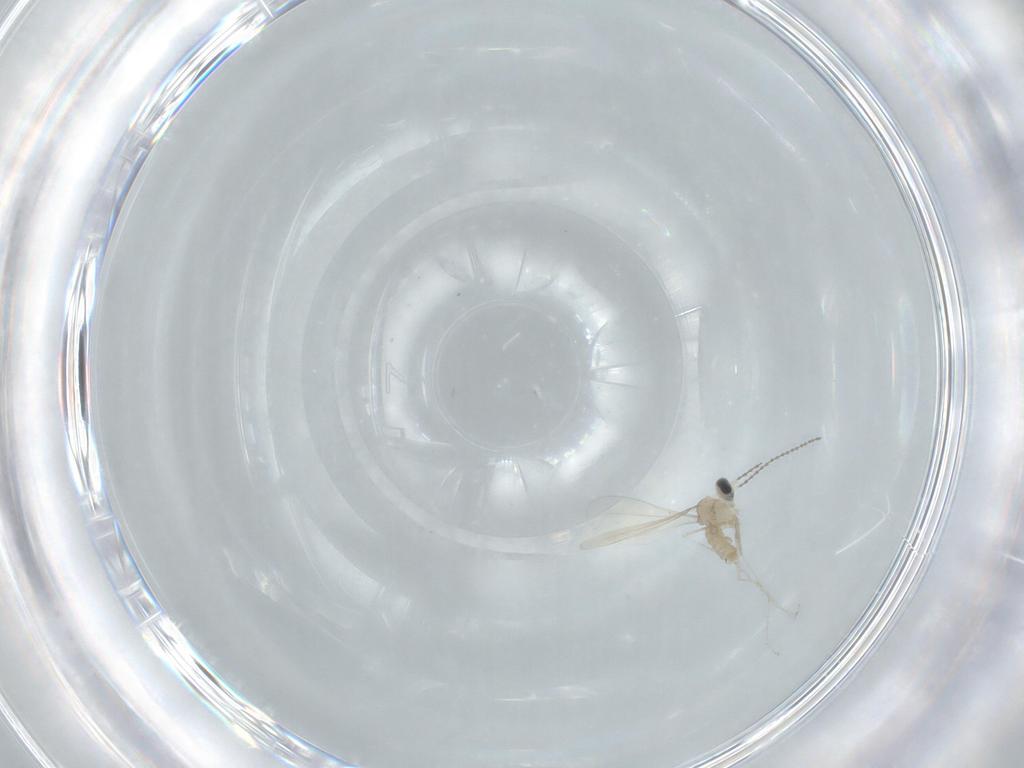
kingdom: Animalia
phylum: Arthropoda
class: Insecta
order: Diptera
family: Cecidomyiidae
